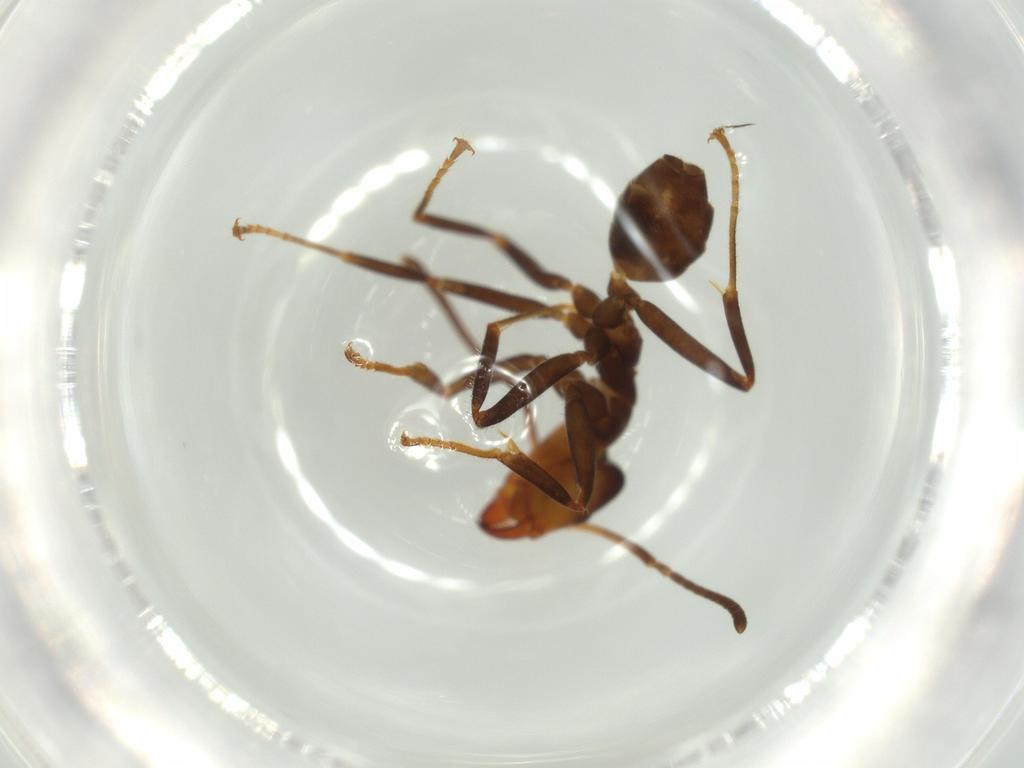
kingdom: Animalia
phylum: Arthropoda
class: Insecta
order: Hymenoptera
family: Formicidae
